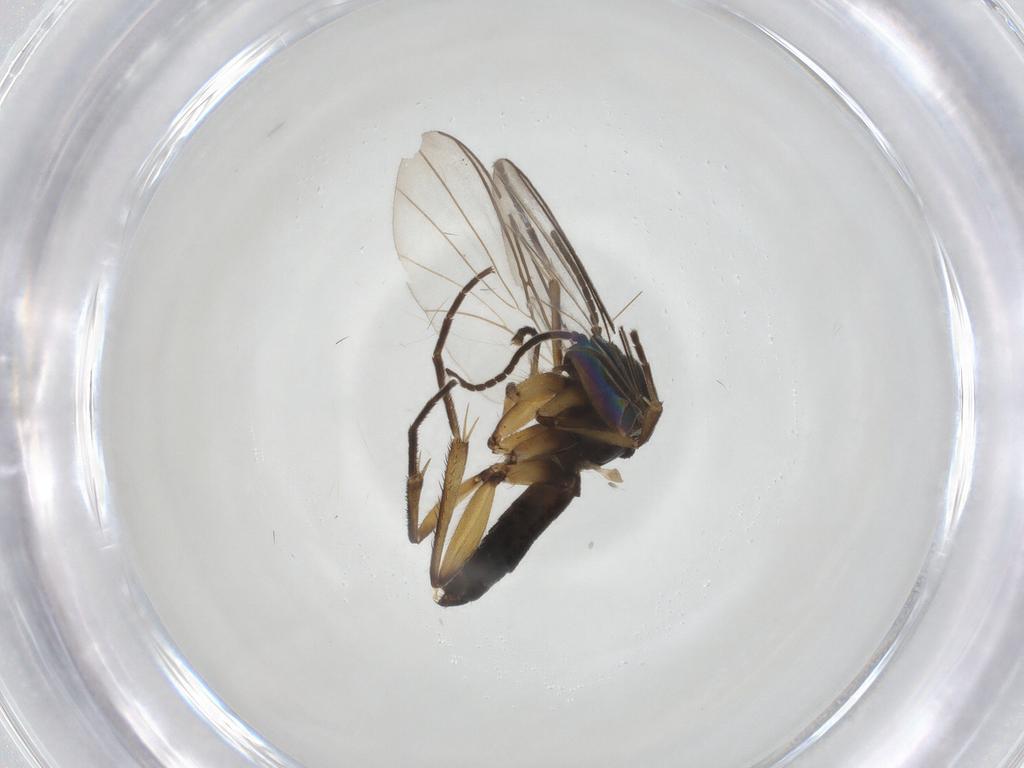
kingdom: Animalia
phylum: Arthropoda
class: Insecta
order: Diptera
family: Mycetophilidae
